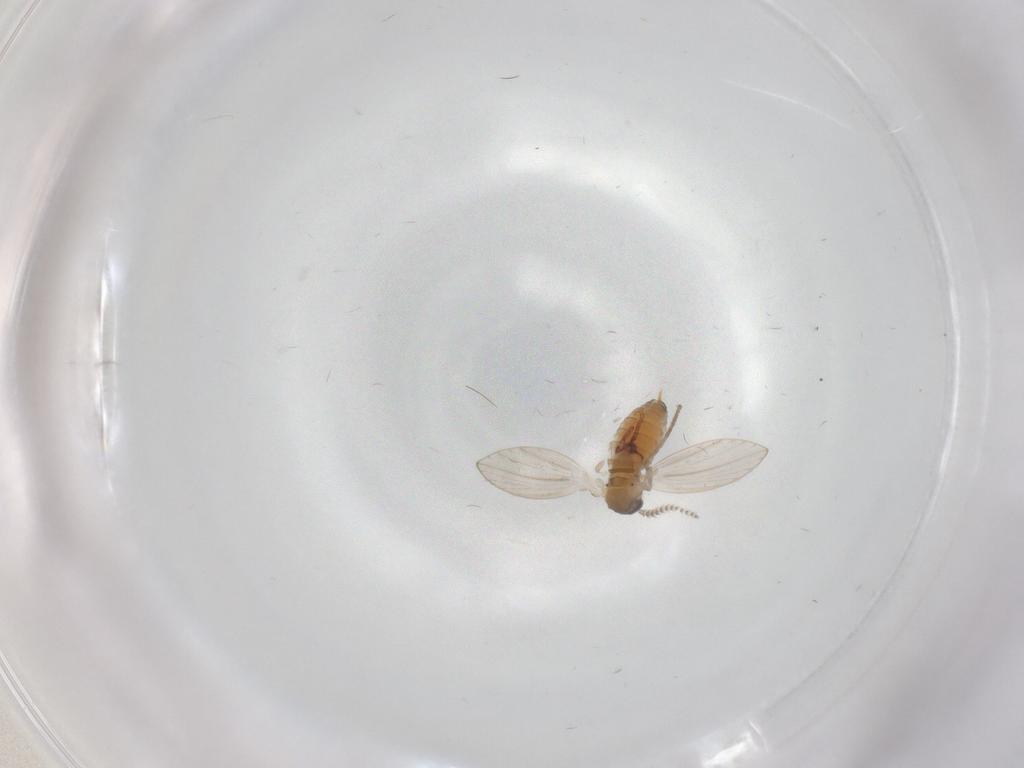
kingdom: Animalia
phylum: Arthropoda
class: Insecta
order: Diptera
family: Psychodidae
